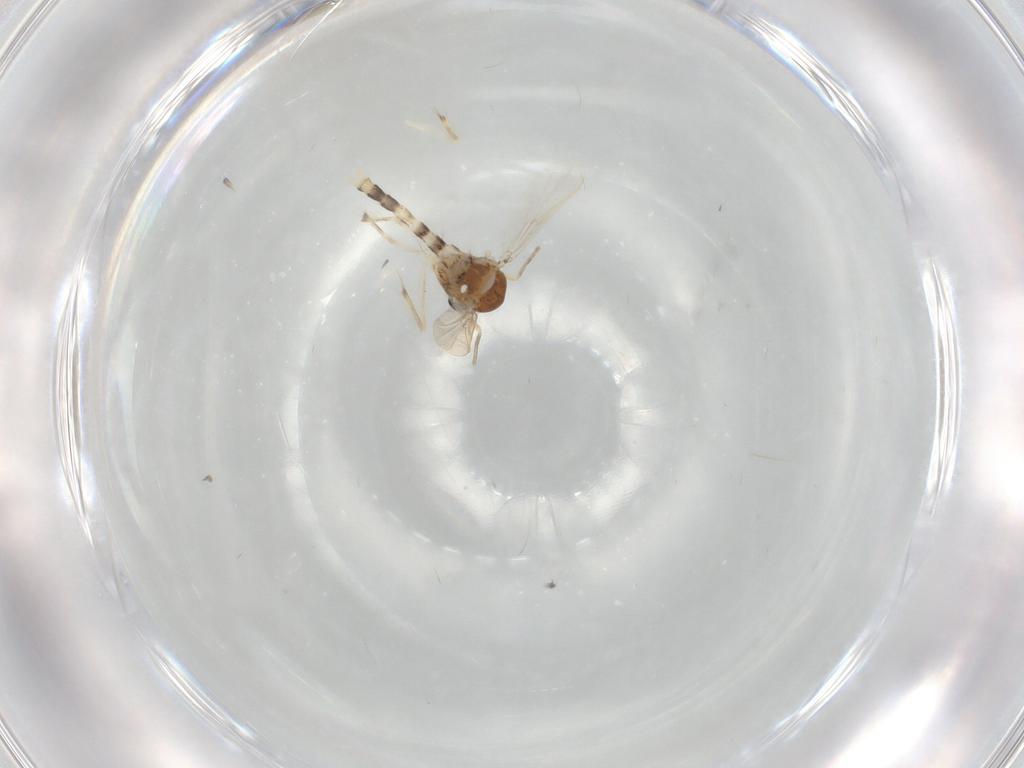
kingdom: Animalia
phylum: Arthropoda
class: Insecta
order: Diptera
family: Chironomidae
